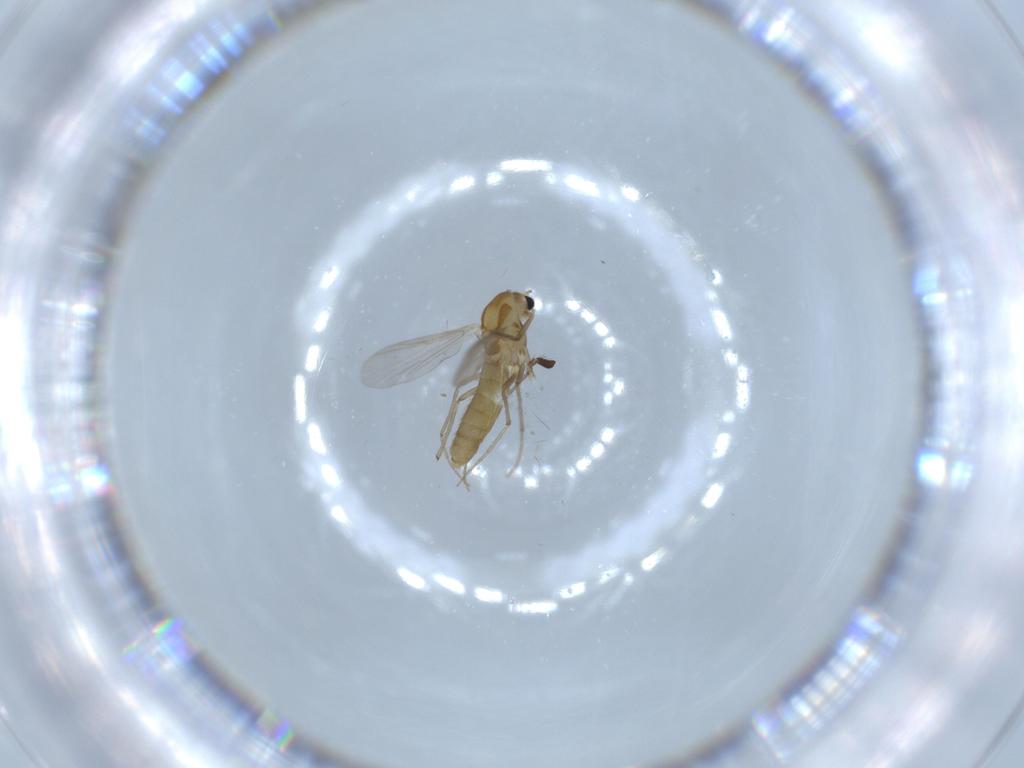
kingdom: Animalia
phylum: Arthropoda
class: Insecta
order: Diptera
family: Chironomidae
